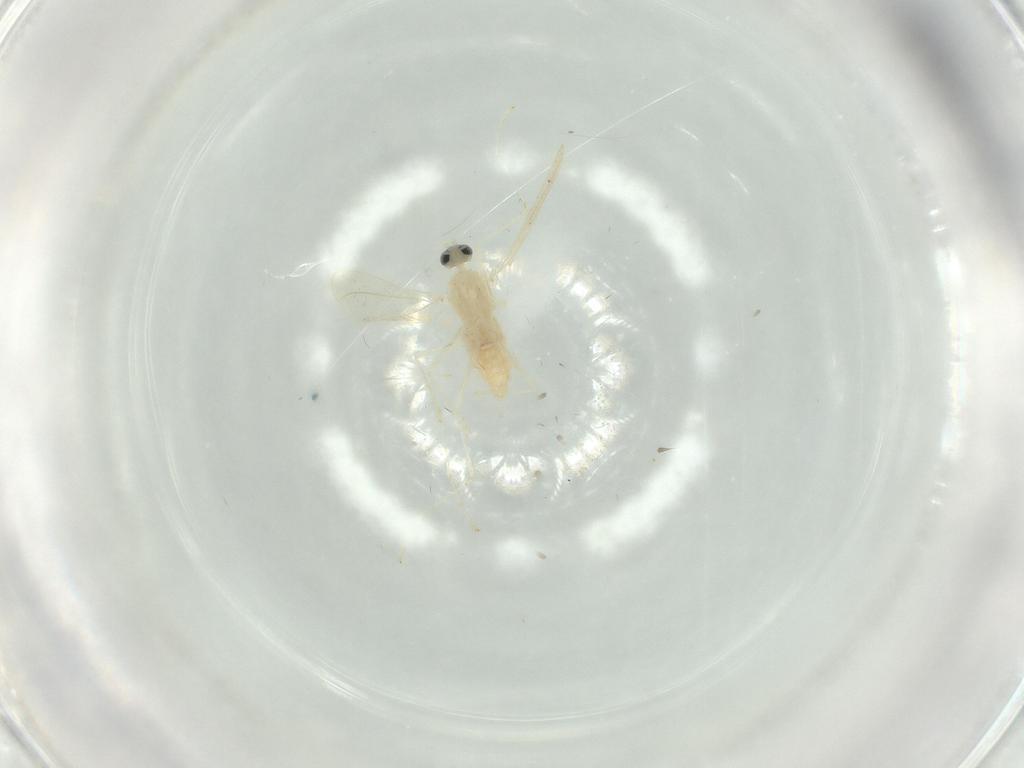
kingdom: Animalia
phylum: Arthropoda
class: Insecta
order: Diptera
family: Cecidomyiidae
